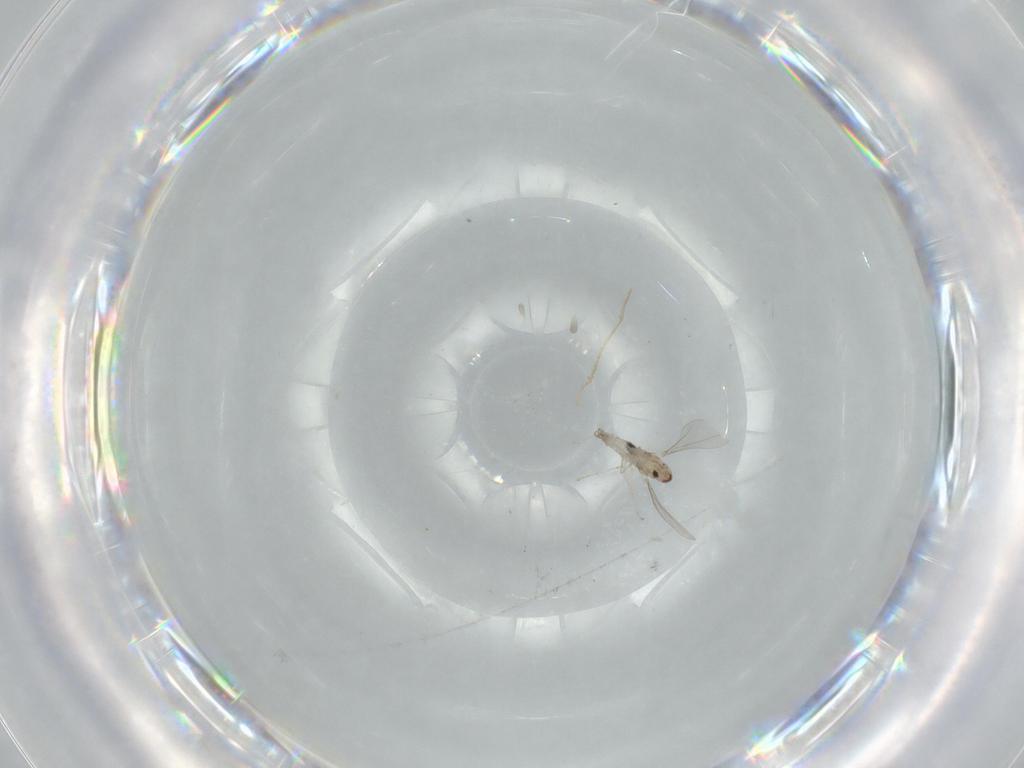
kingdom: Animalia
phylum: Arthropoda
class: Insecta
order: Diptera
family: Cecidomyiidae
